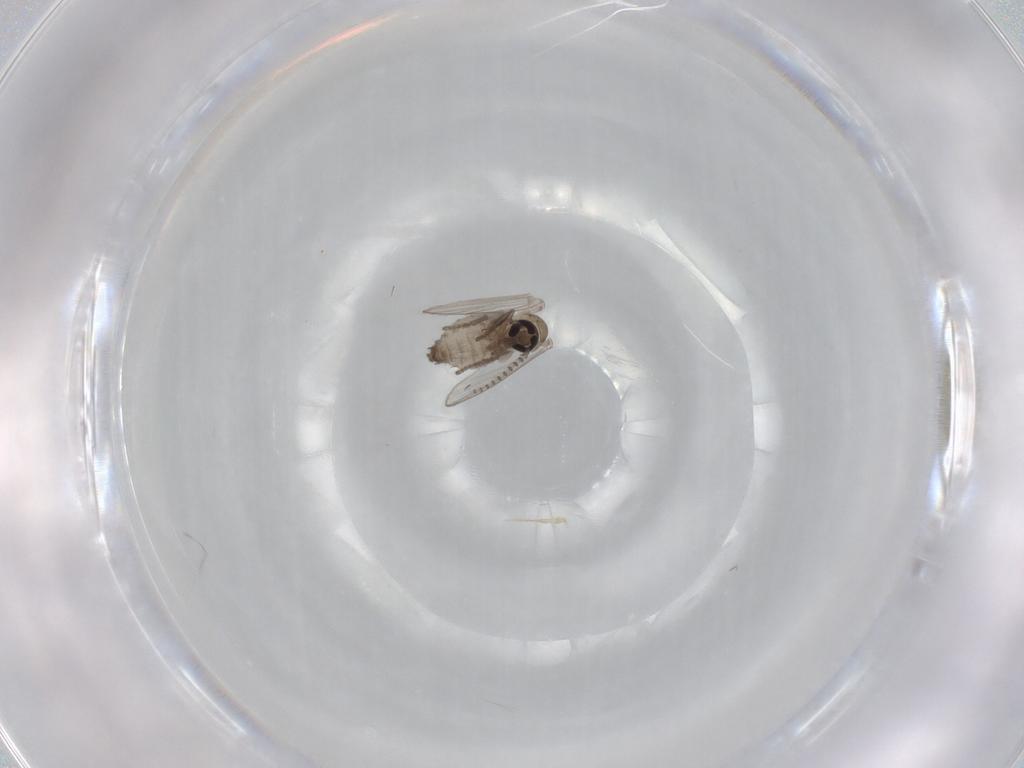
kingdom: Animalia
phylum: Arthropoda
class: Insecta
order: Diptera
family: Psychodidae
